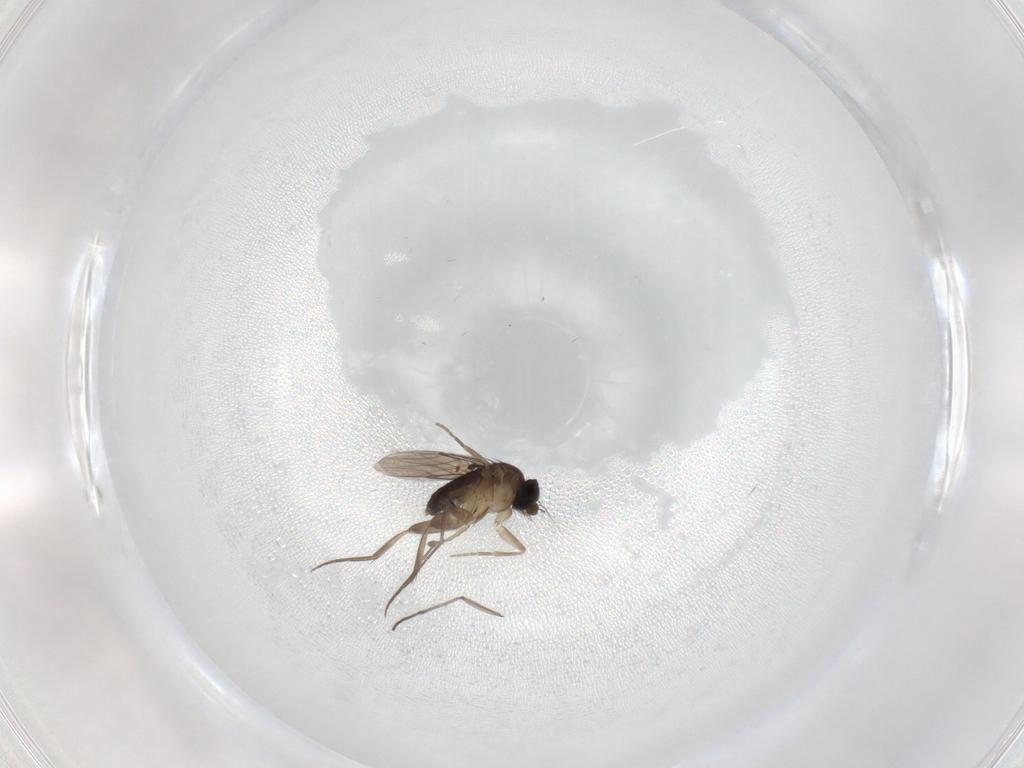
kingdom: Animalia
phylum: Arthropoda
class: Insecta
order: Diptera
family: Phoridae
